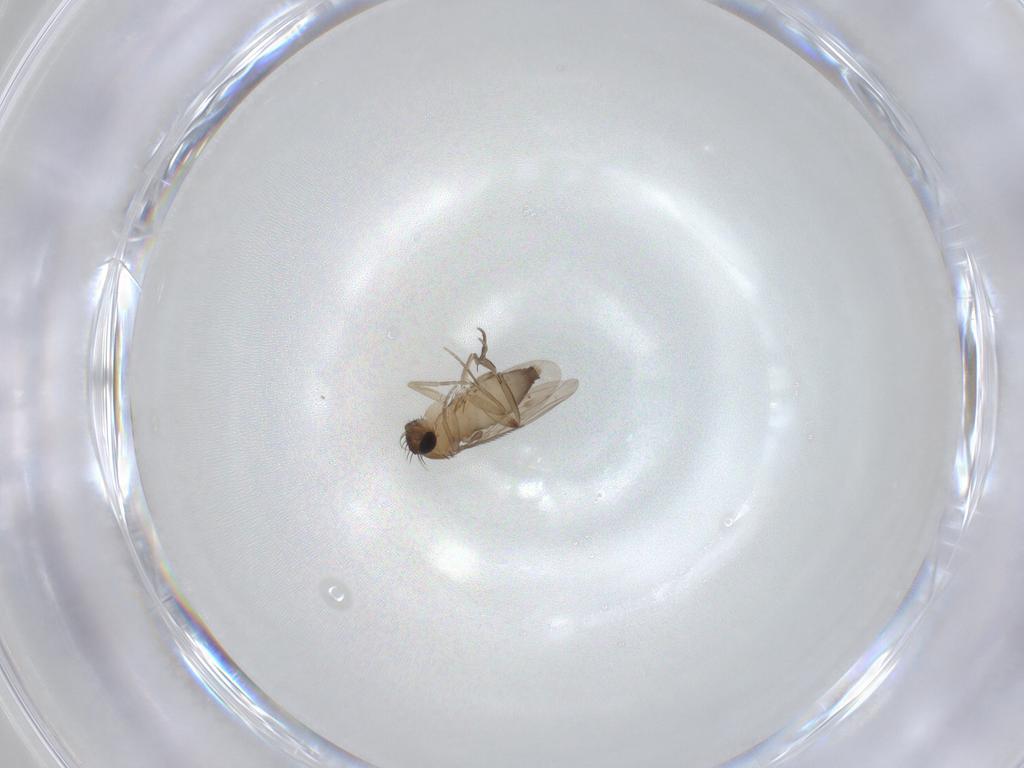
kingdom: Animalia
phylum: Arthropoda
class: Insecta
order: Diptera
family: Phoridae
